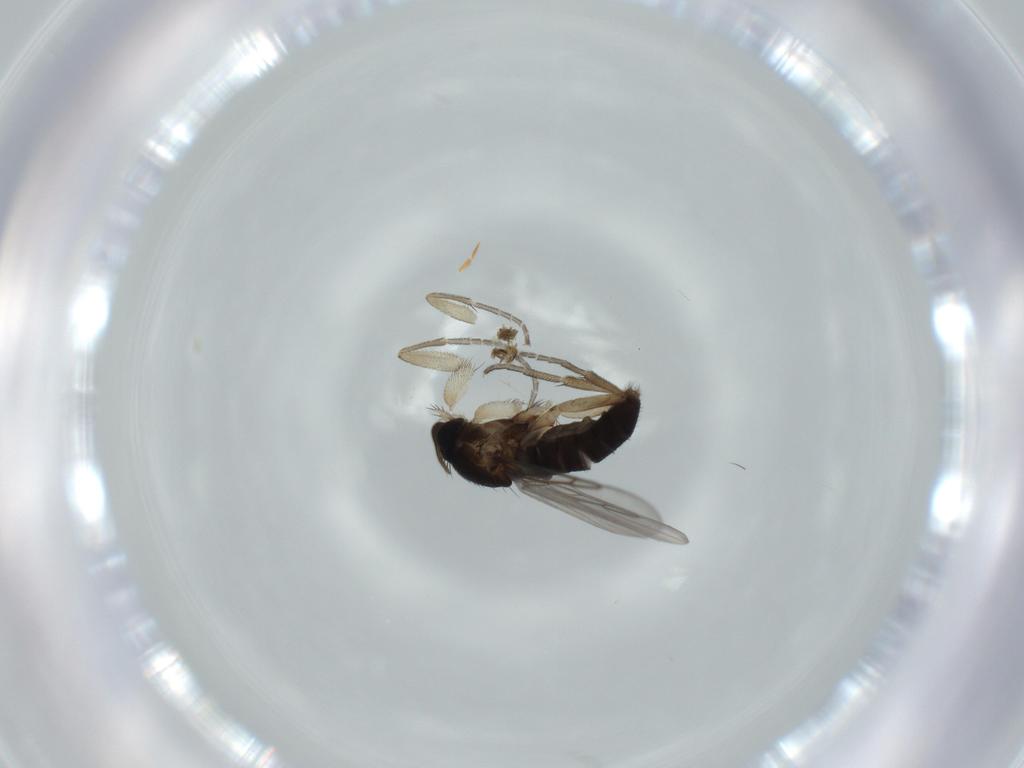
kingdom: Animalia
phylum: Arthropoda
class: Insecta
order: Diptera
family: Mycetophilidae
